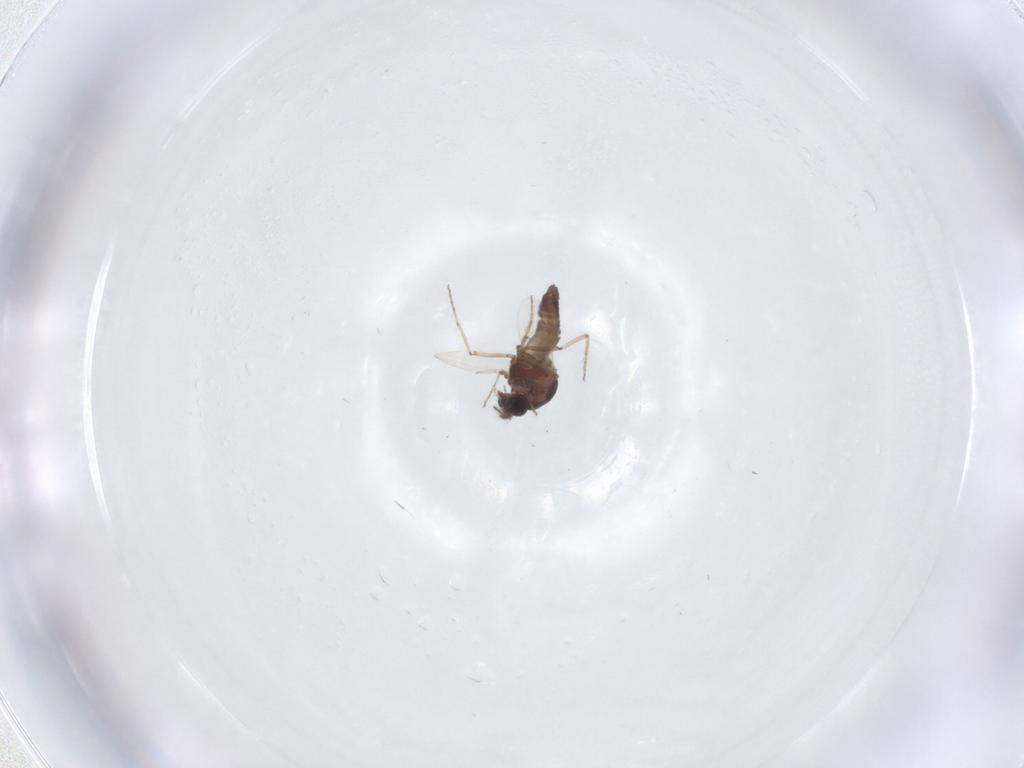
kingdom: Animalia
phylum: Arthropoda
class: Insecta
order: Diptera
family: Ceratopogonidae
